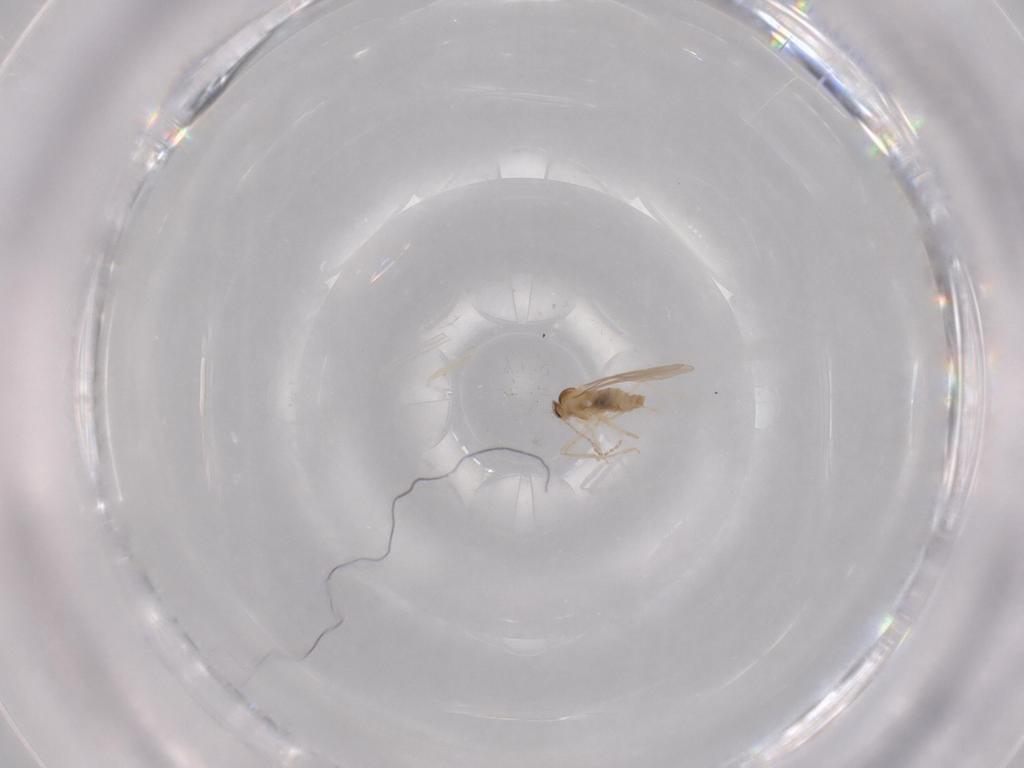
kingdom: Animalia
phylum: Arthropoda
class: Insecta
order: Diptera
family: Cecidomyiidae
